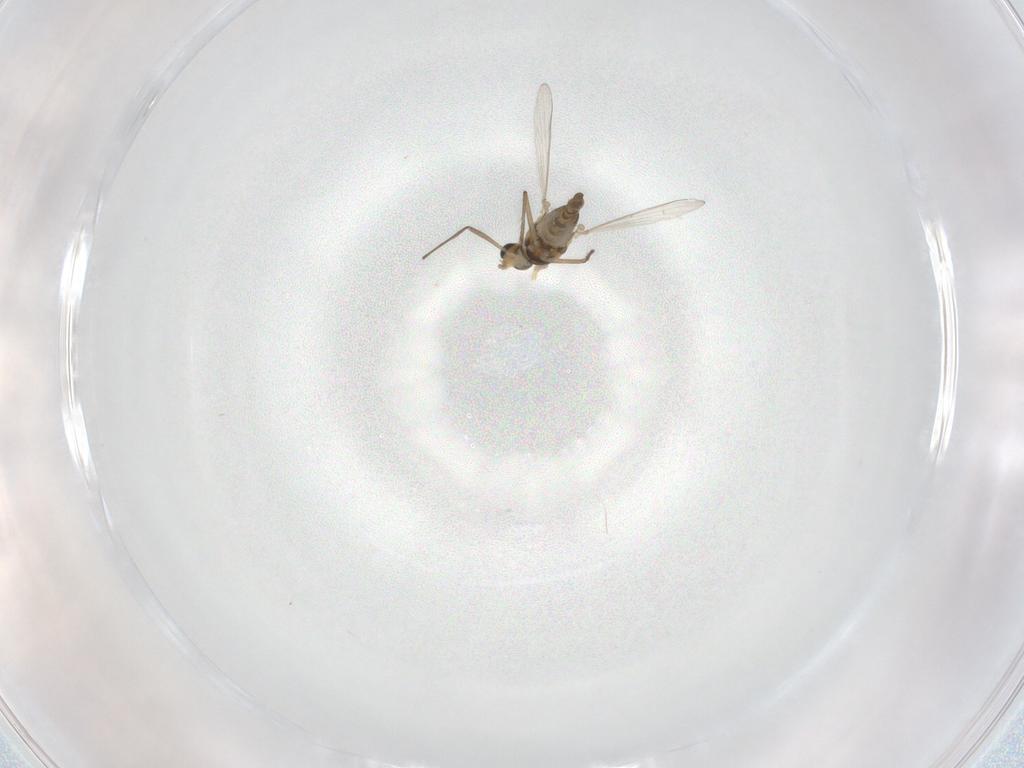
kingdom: Animalia
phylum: Arthropoda
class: Insecta
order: Diptera
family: Chironomidae
